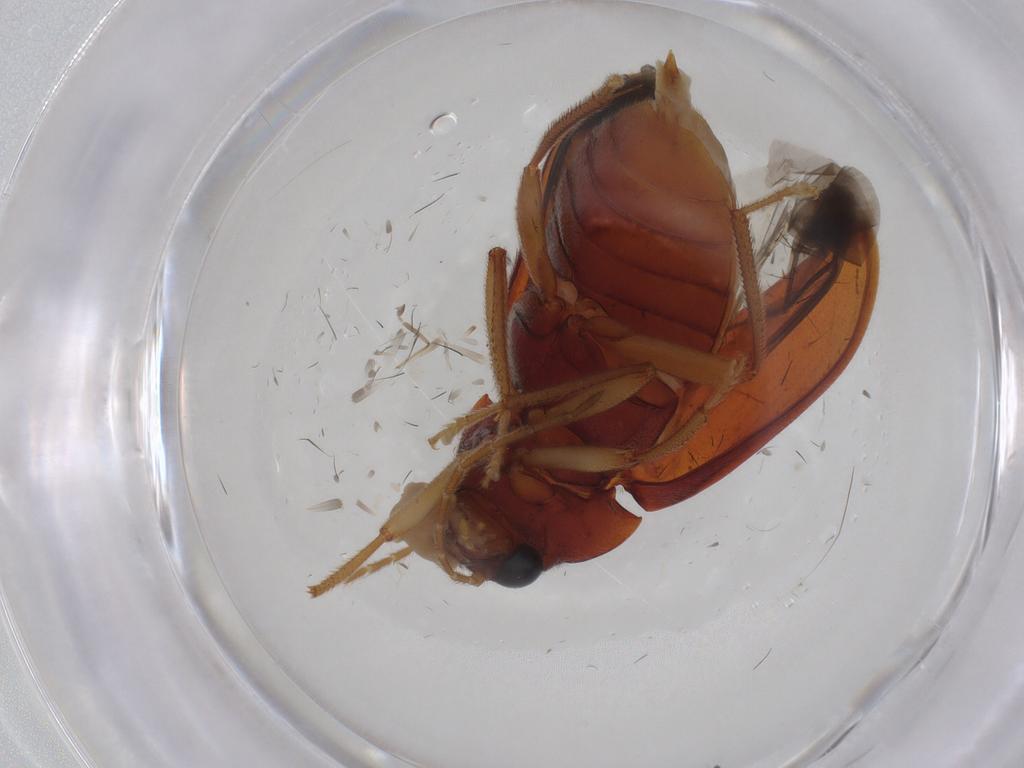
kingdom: Animalia
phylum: Arthropoda
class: Insecta
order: Coleoptera
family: Ptilodactylidae
